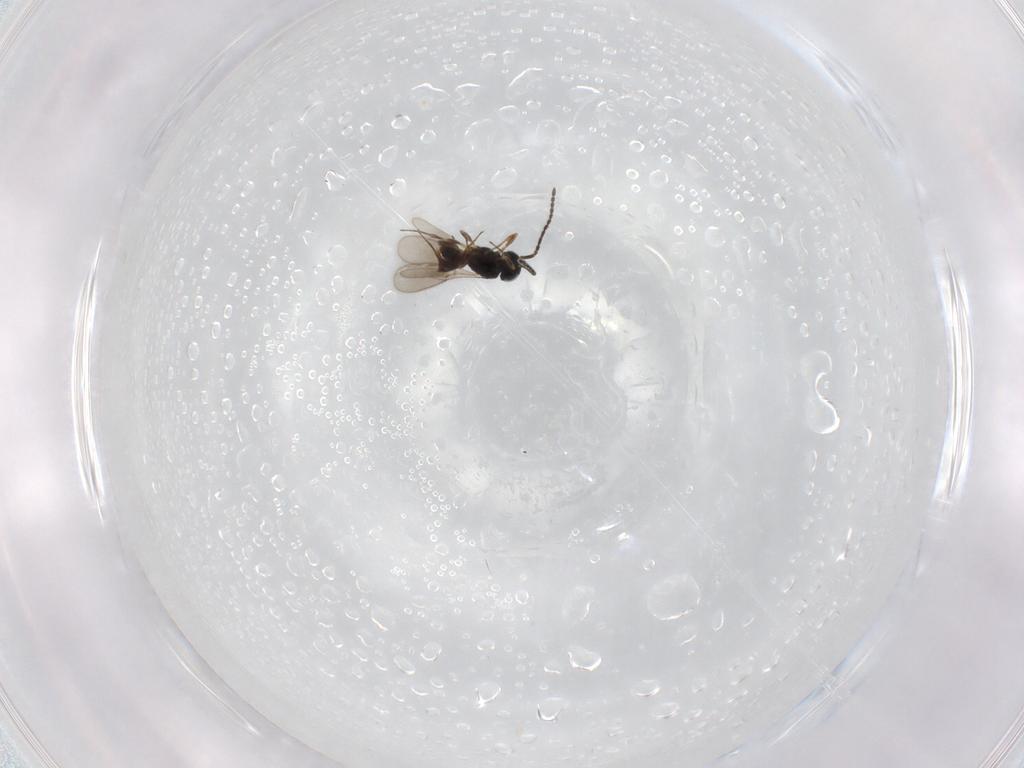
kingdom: Animalia
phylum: Arthropoda
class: Insecta
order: Hymenoptera
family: Scelionidae
